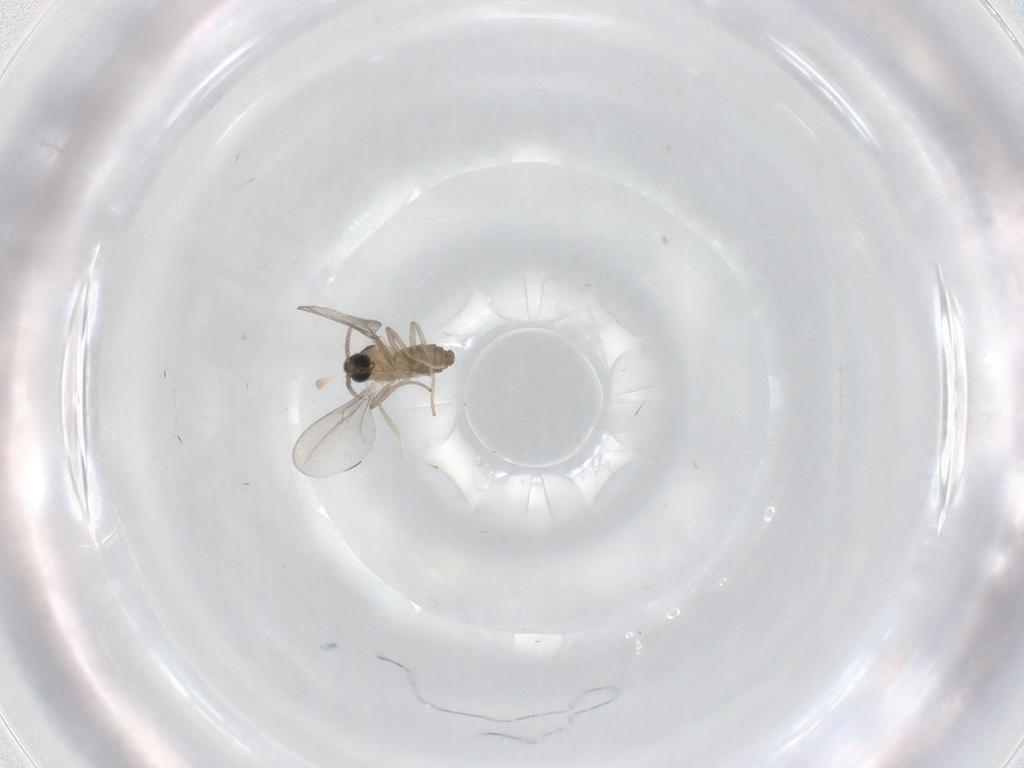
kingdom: Animalia
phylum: Arthropoda
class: Insecta
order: Diptera
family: Cecidomyiidae
